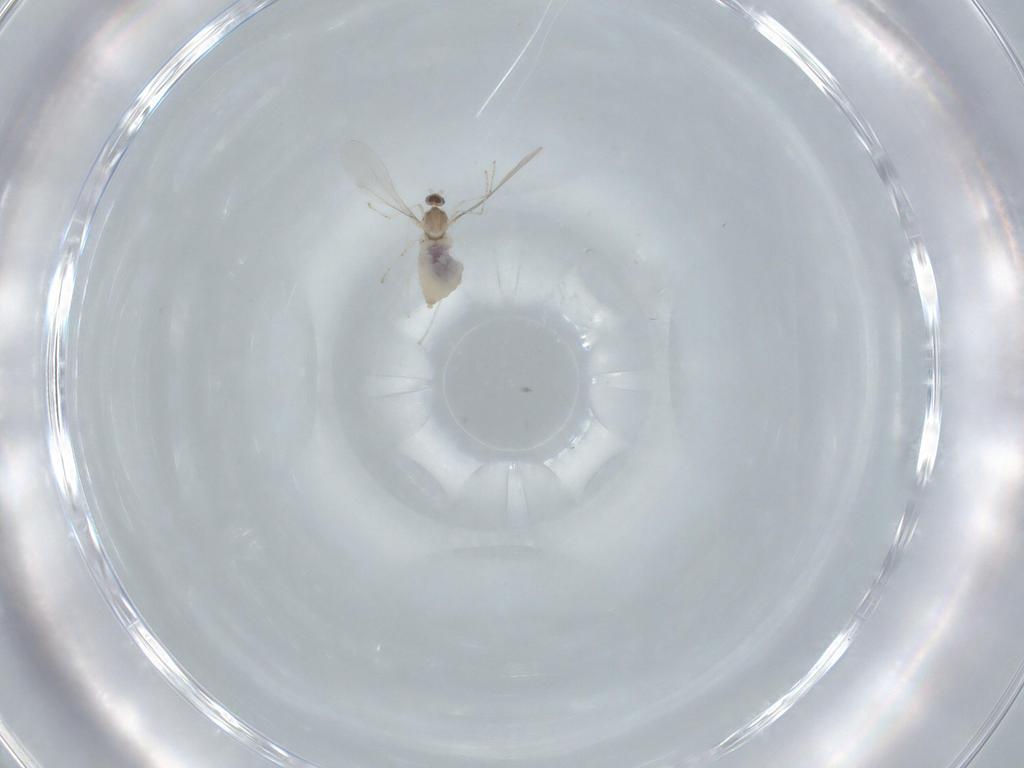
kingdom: Animalia
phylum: Arthropoda
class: Insecta
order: Diptera
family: Cecidomyiidae
